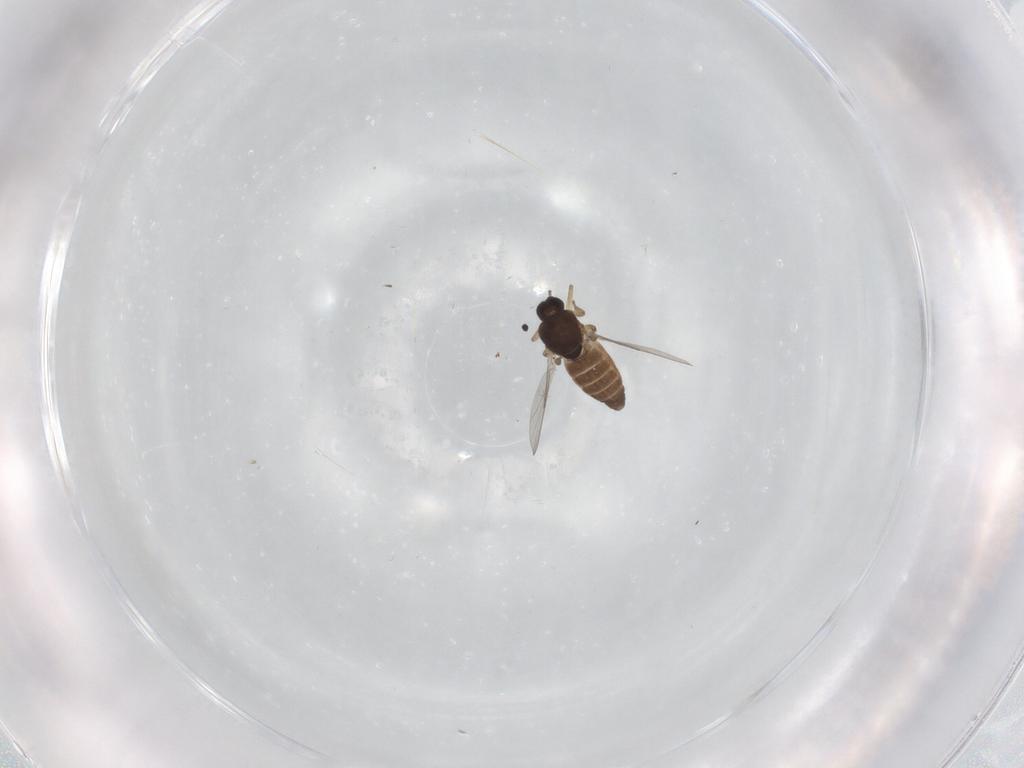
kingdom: Animalia
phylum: Arthropoda
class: Insecta
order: Diptera
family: Ceratopogonidae
